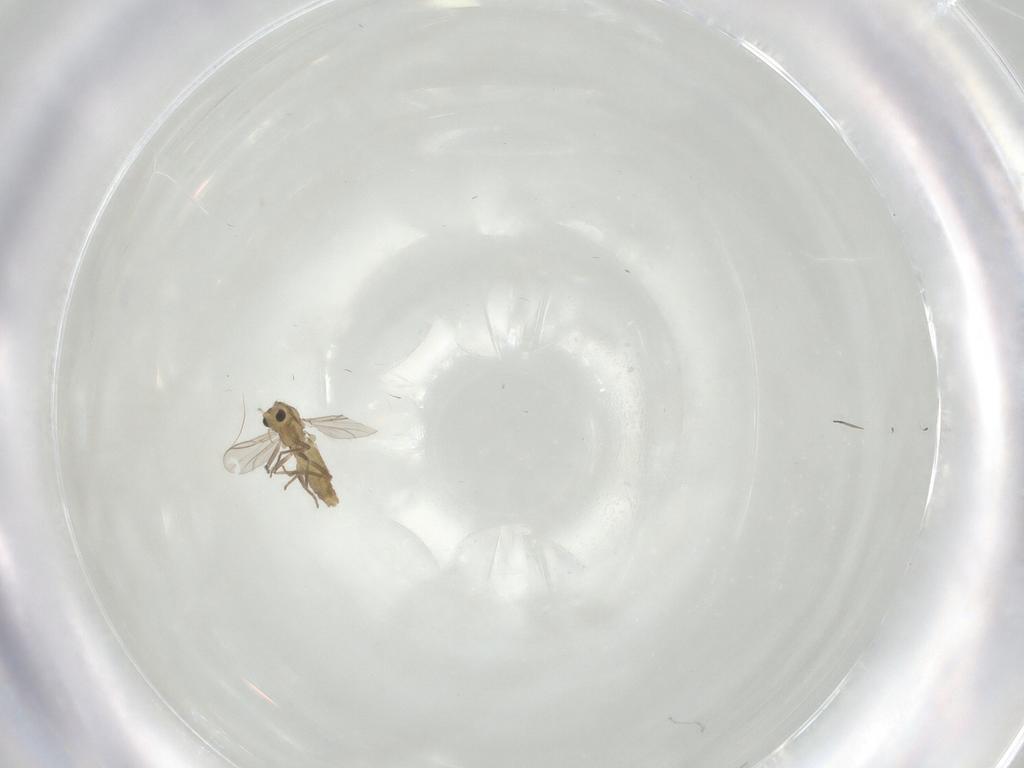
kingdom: Animalia
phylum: Arthropoda
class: Insecta
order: Diptera
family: Chironomidae
